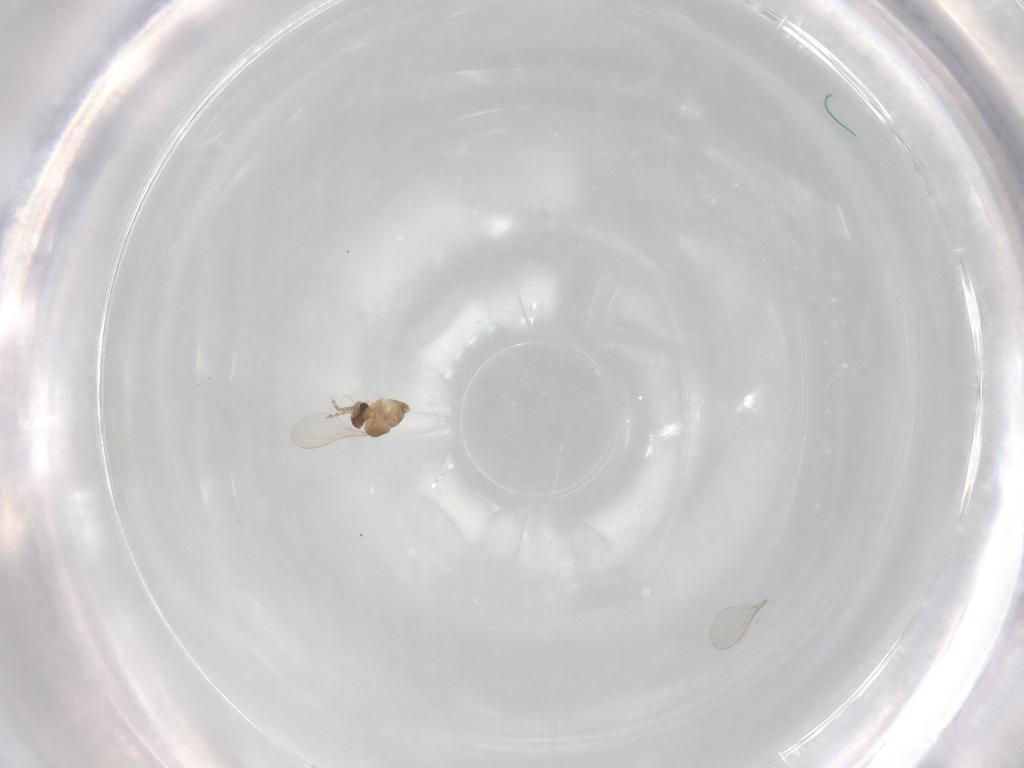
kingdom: Animalia
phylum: Arthropoda
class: Insecta
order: Diptera
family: Cecidomyiidae
